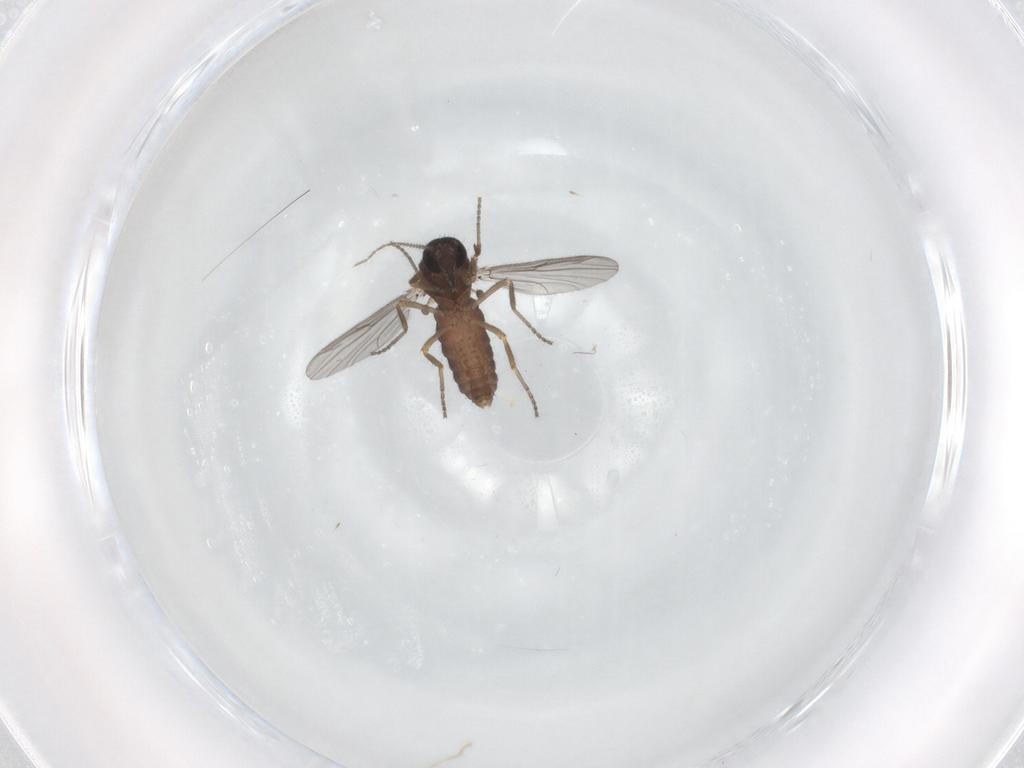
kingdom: Animalia
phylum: Arthropoda
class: Insecta
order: Diptera
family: Ceratopogonidae
